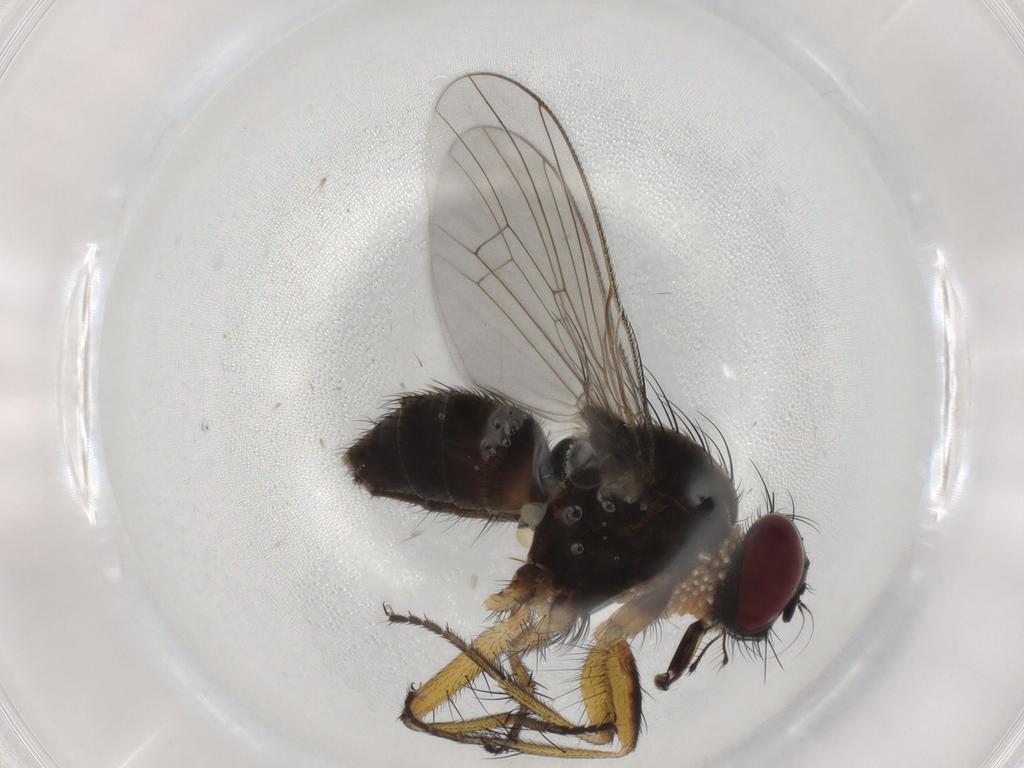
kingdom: Animalia
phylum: Arthropoda
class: Insecta
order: Diptera
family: Muscidae
